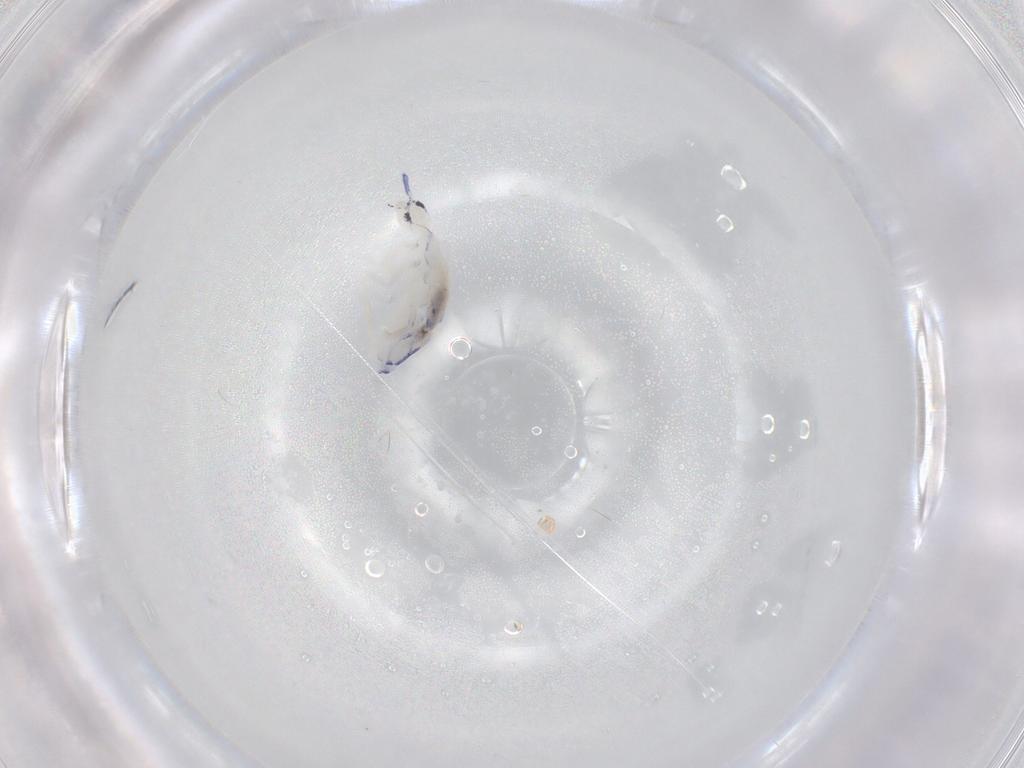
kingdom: Animalia
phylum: Arthropoda
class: Collembola
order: Entomobryomorpha
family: Entomobryidae
